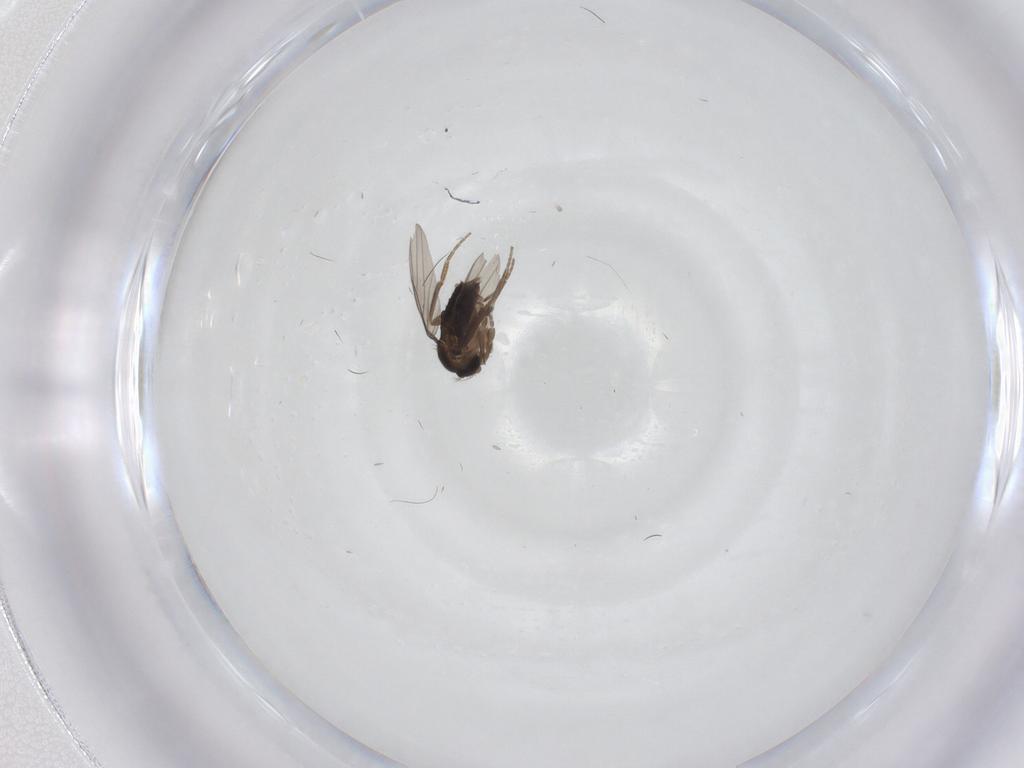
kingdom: Animalia
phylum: Arthropoda
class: Insecta
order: Diptera
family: Phoridae
